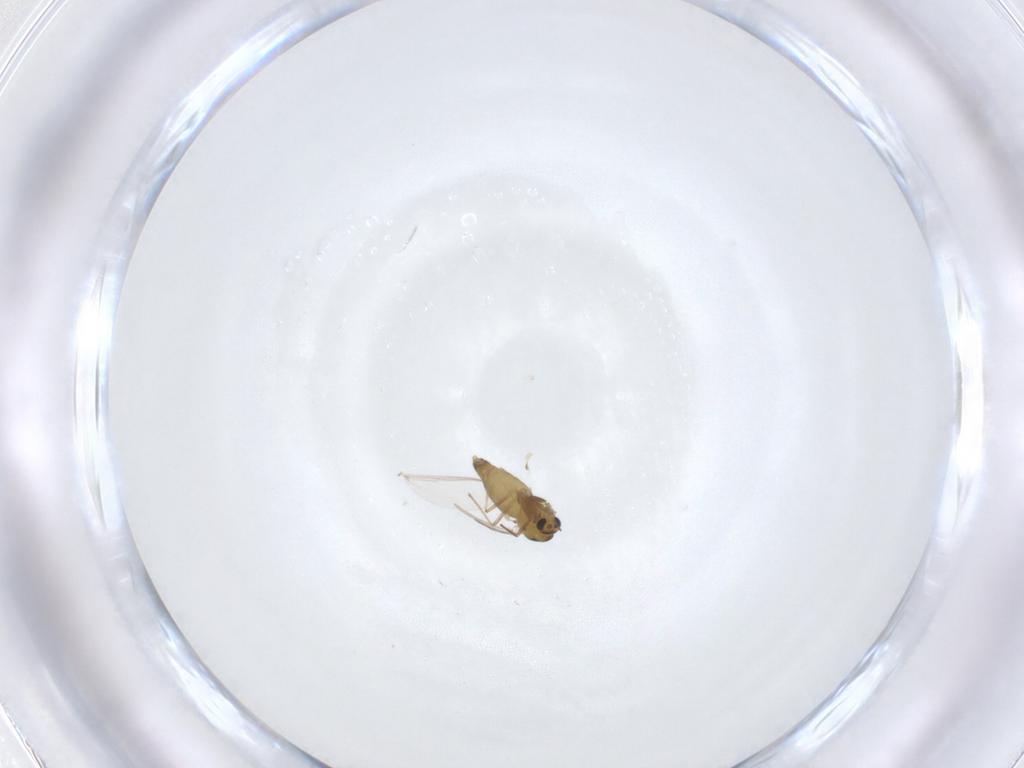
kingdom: Animalia
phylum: Arthropoda
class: Insecta
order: Diptera
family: Chironomidae
